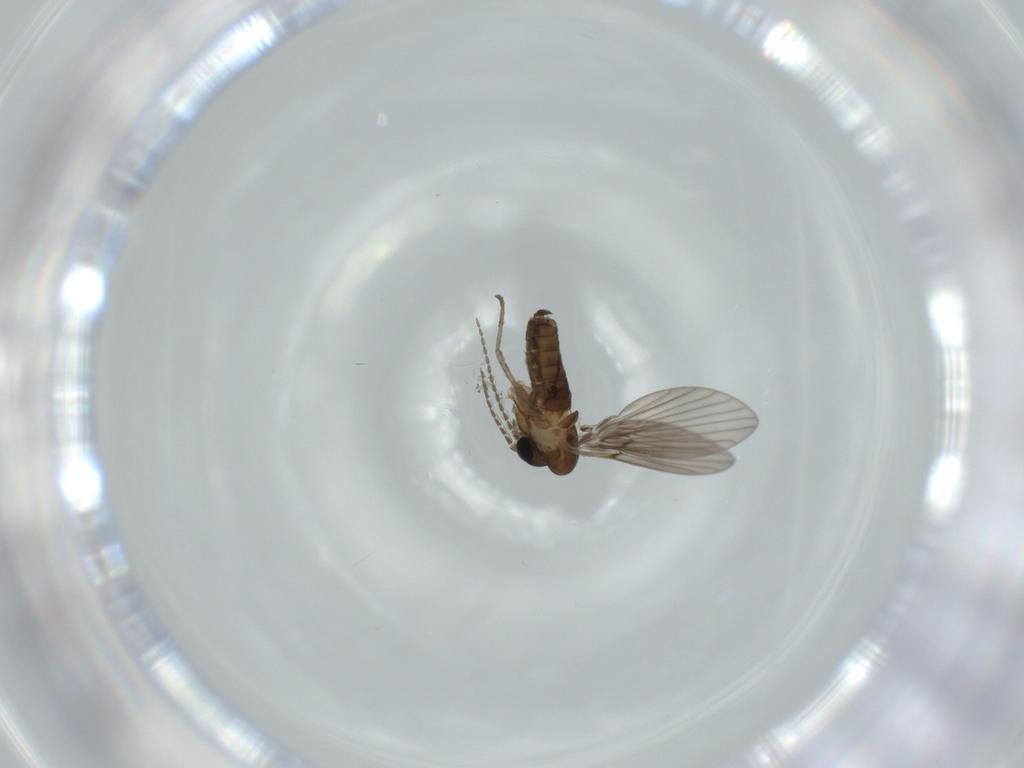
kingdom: Animalia
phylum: Arthropoda
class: Insecta
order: Diptera
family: Psychodidae
